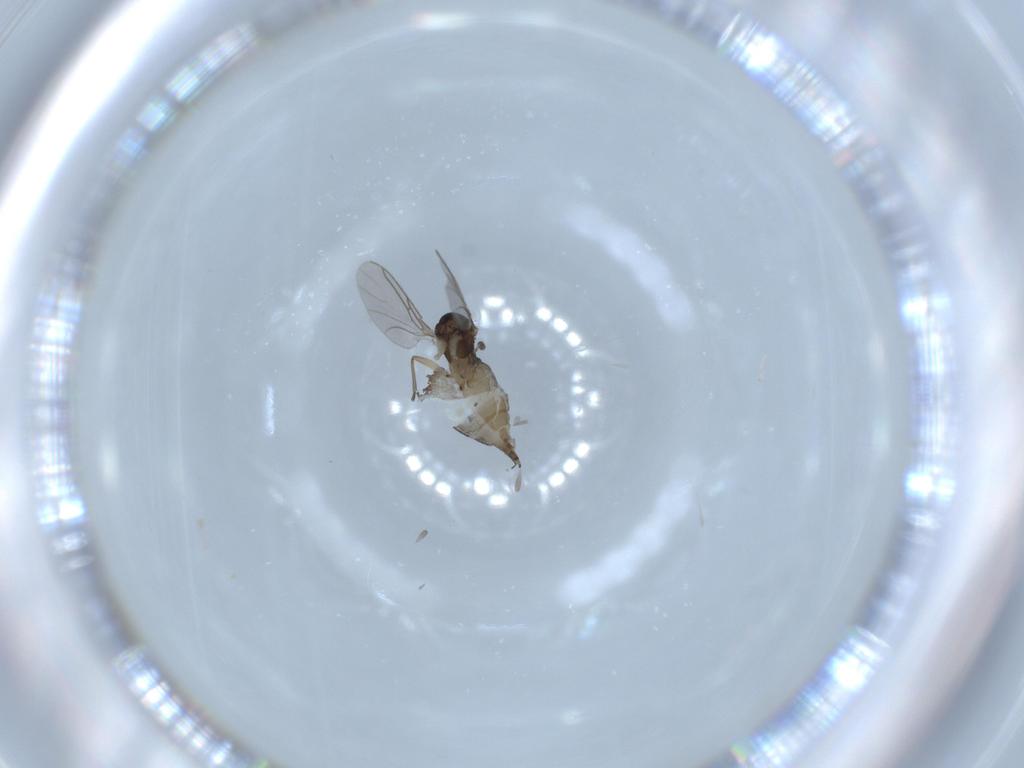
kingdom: Animalia
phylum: Arthropoda
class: Insecta
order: Diptera
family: Sciaridae
